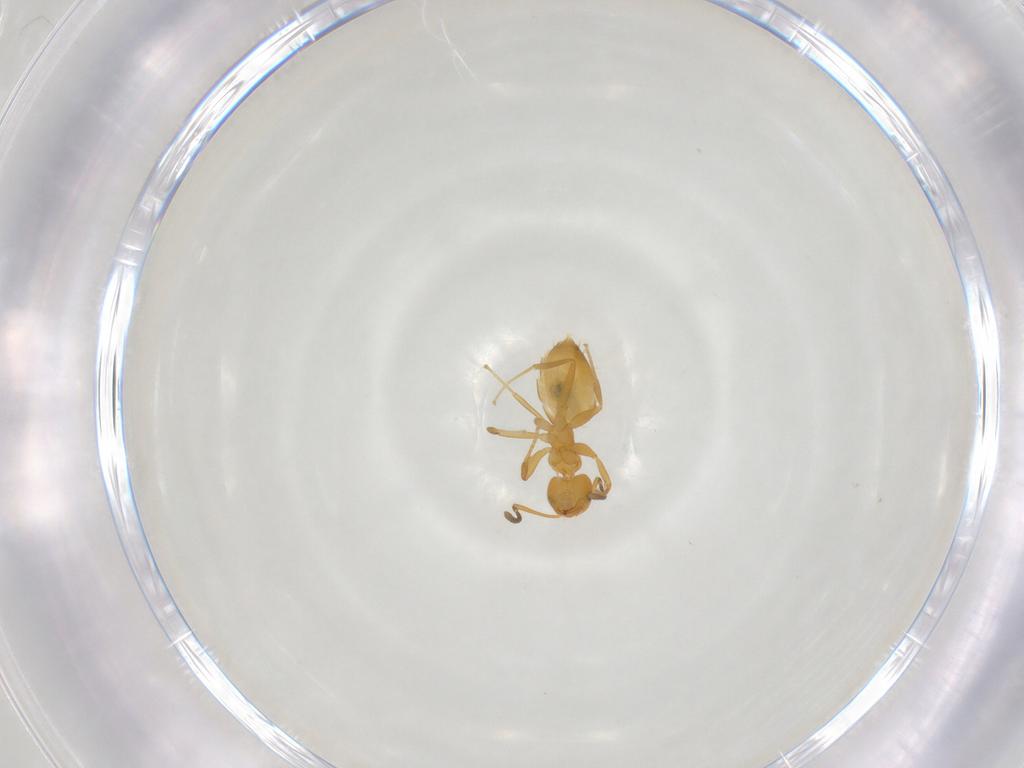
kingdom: Animalia
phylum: Arthropoda
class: Insecta
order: Hymenoptera
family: Formicidae
